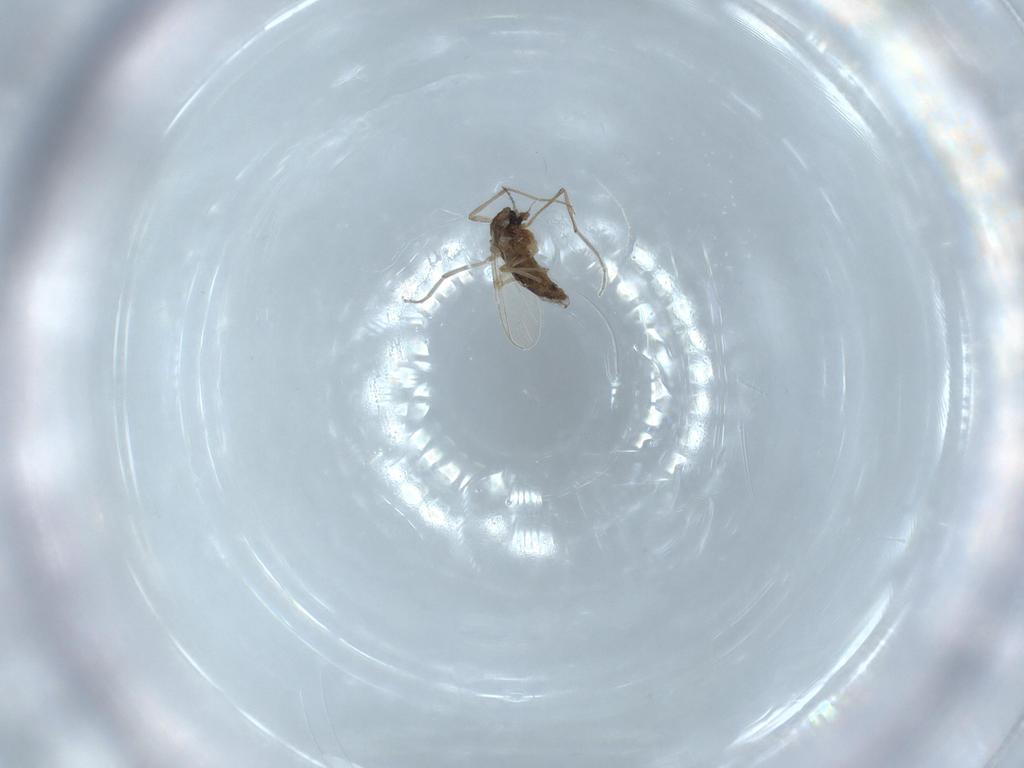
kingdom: Animalia
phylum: Arthropoda
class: Insecta
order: Diptera
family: Chironomidae
